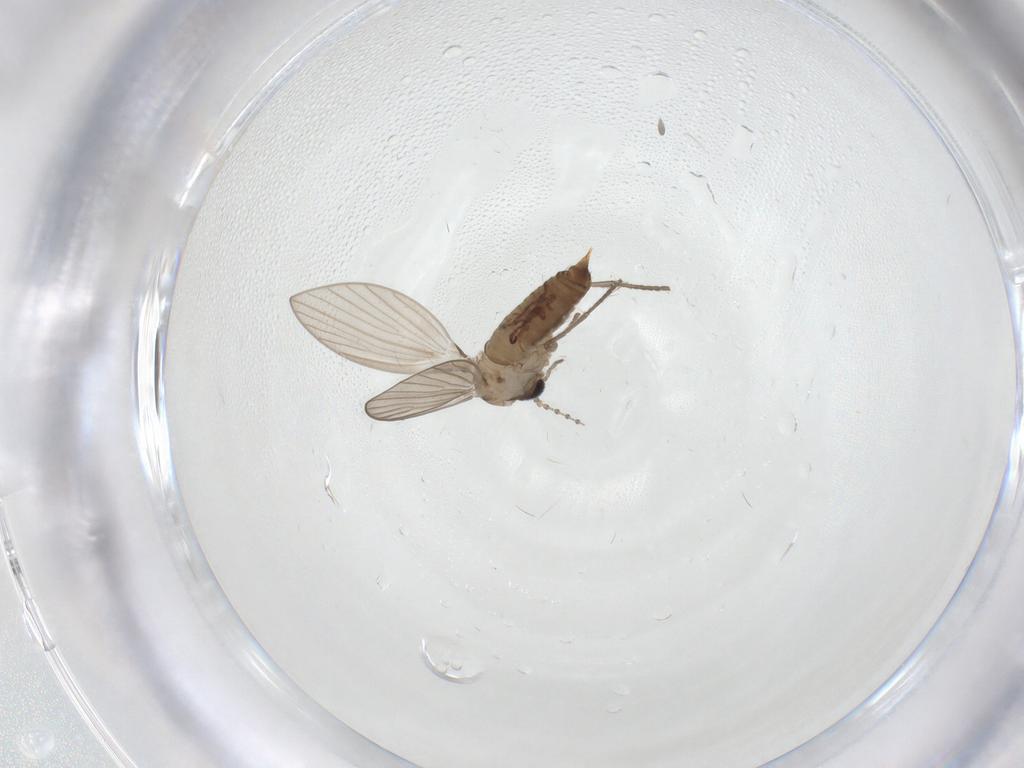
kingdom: Animalia
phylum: Arthropoda
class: Insecta
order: Diptera
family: Psychodidae
